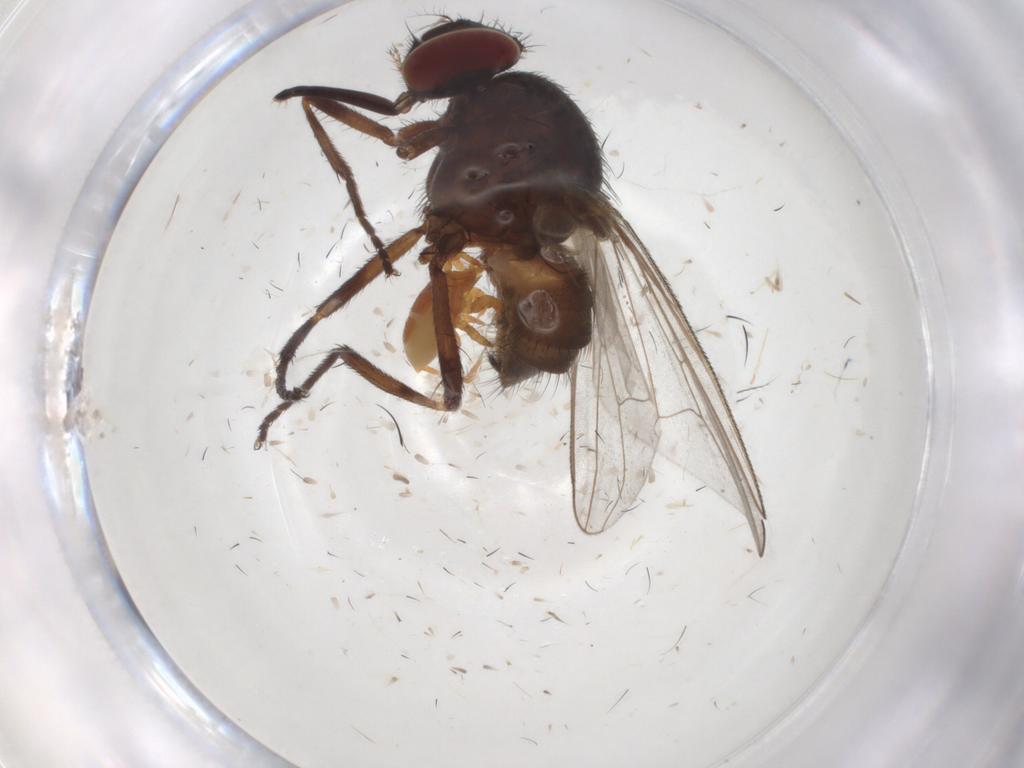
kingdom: Animalia
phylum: Arthropoda
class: Insecta
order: Diptera
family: Muscidae
